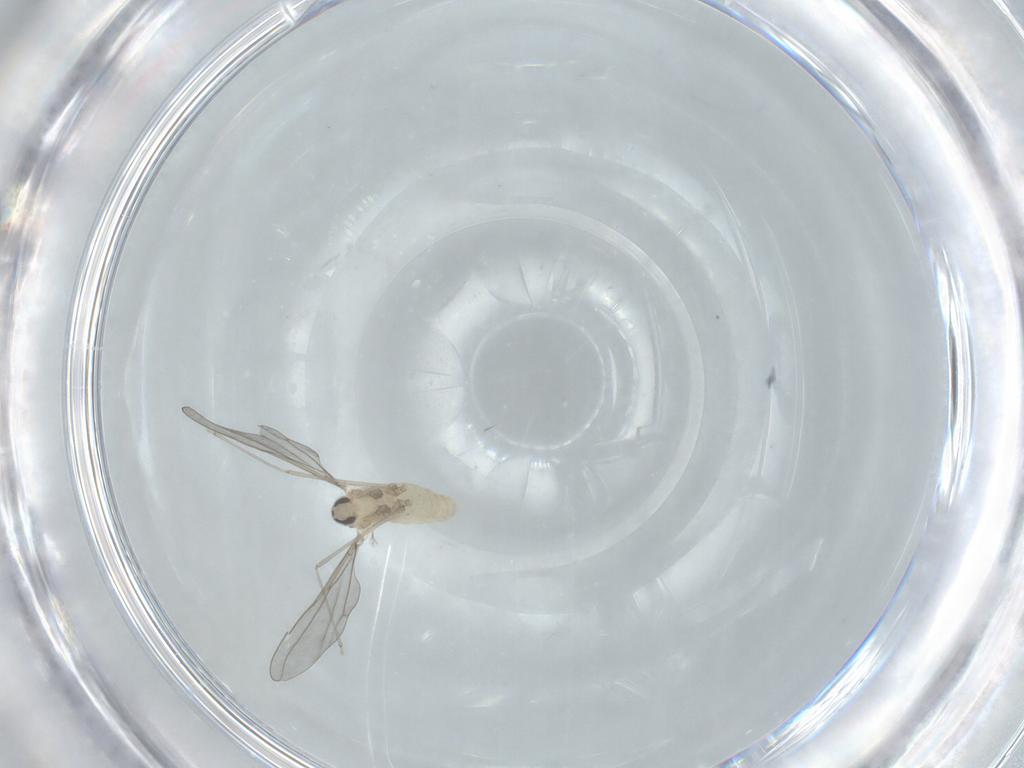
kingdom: Animalia
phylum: Arthropoda
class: Insecta
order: Diptera
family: Cecidomyiidae
